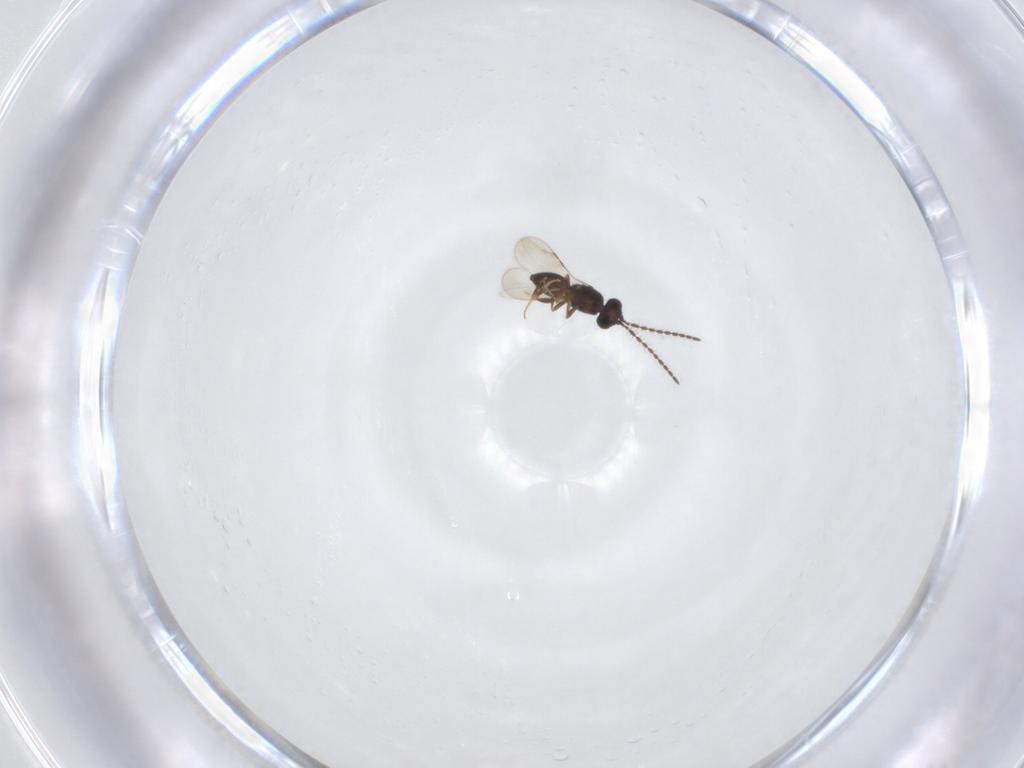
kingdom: Animalia
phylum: Arthropoda
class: Insecta
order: Hymenoptera
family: Ceraphronidae
